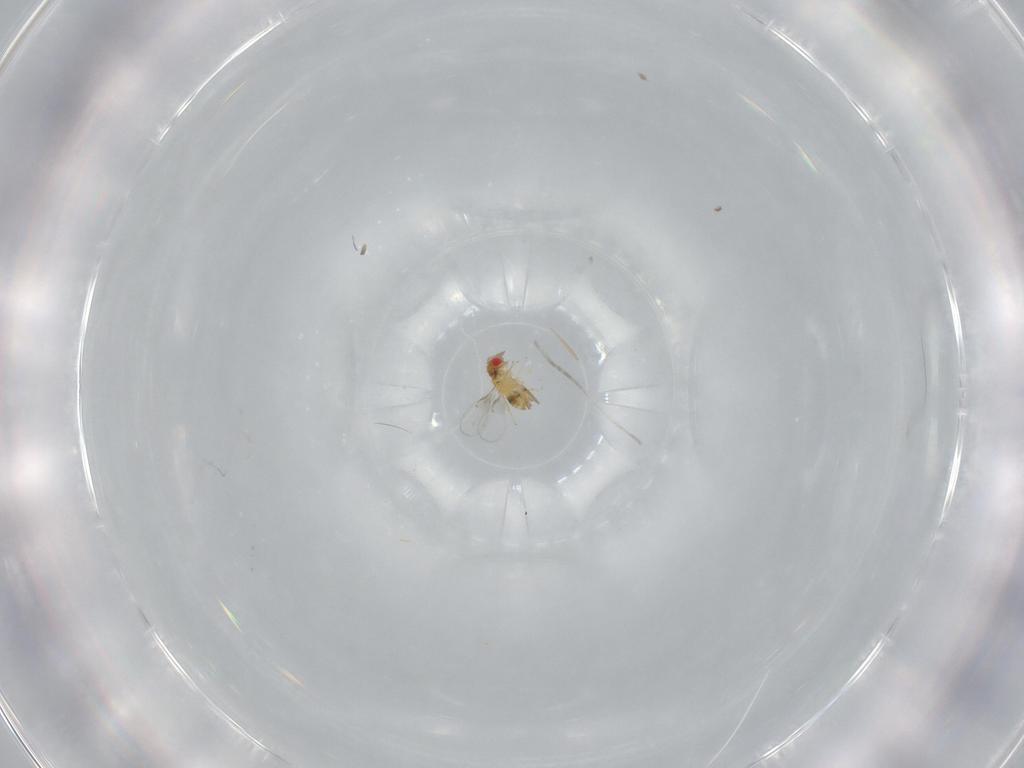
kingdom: Animalia
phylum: Arthropoda
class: Insecta
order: Hymenoptera
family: Trichogrammatidae
